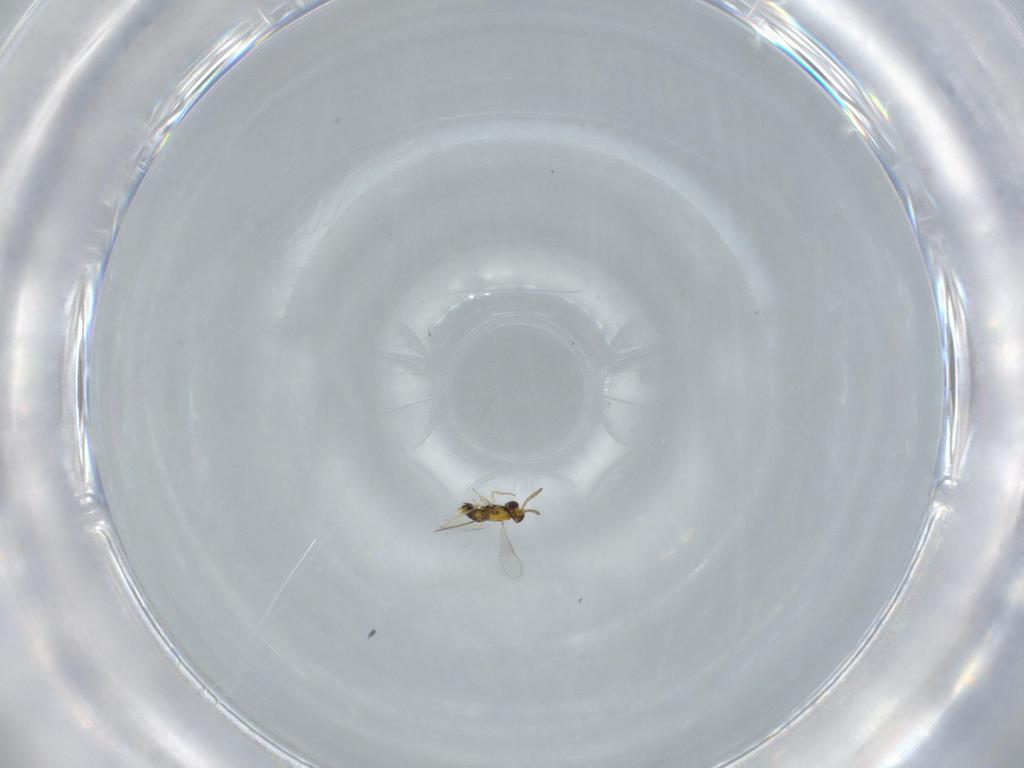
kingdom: Animalia
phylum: Arthropoda
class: Insecta
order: Hymenoptera
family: Aphelinidae
